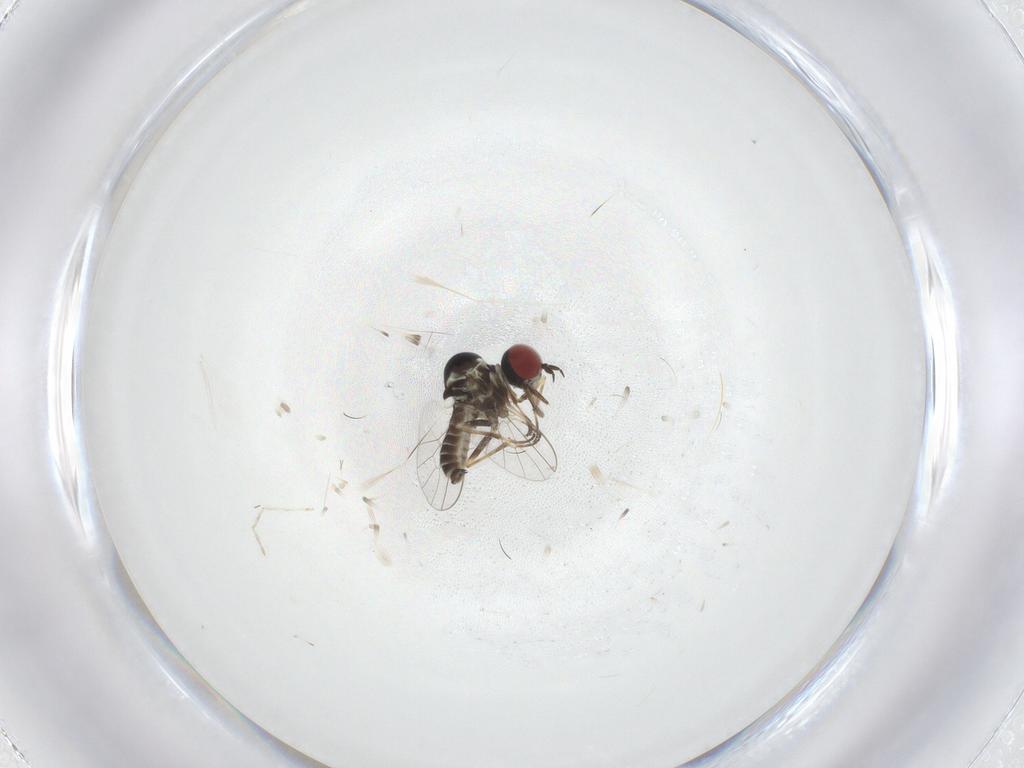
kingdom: Animalia
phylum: Arthropoda
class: Insecta
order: Diptera
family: Bombyliidae
